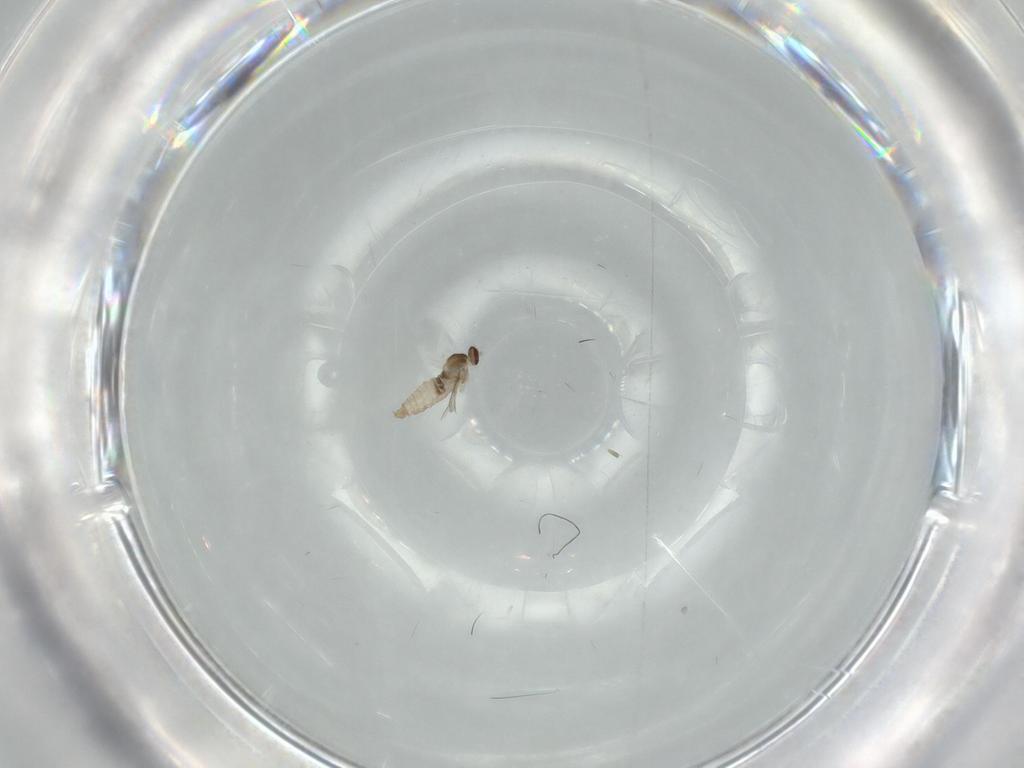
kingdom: Animalia
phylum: Arthropoda
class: Insecta
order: Diptera
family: Cecidomyiidae
